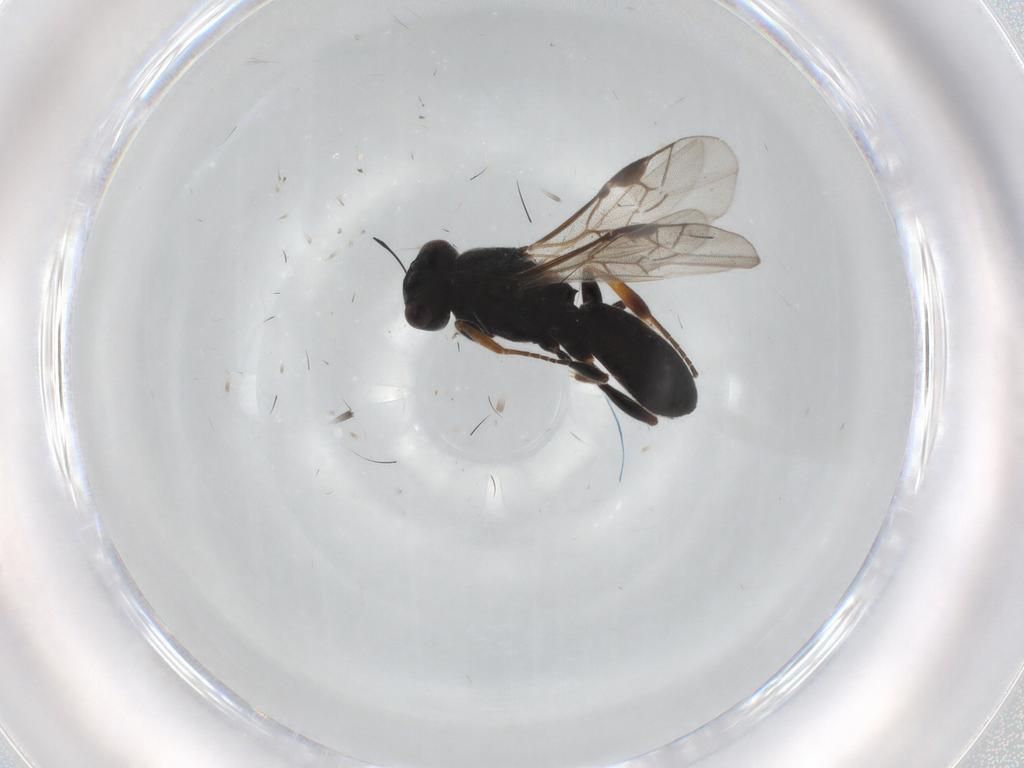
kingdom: Animalia
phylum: Arthropoda
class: Insecta
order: Hymenoptera
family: Braconidae
